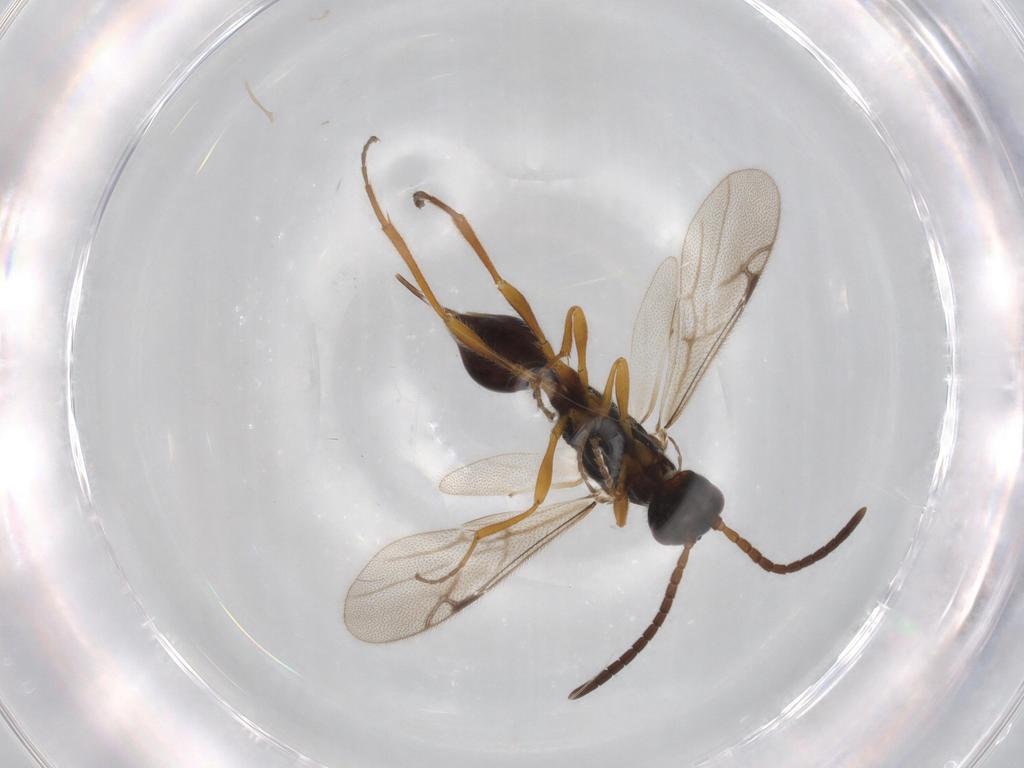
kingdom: Animalia
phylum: Arthropoda
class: Insecta
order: Hymenoptera
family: Proctotrupidae
